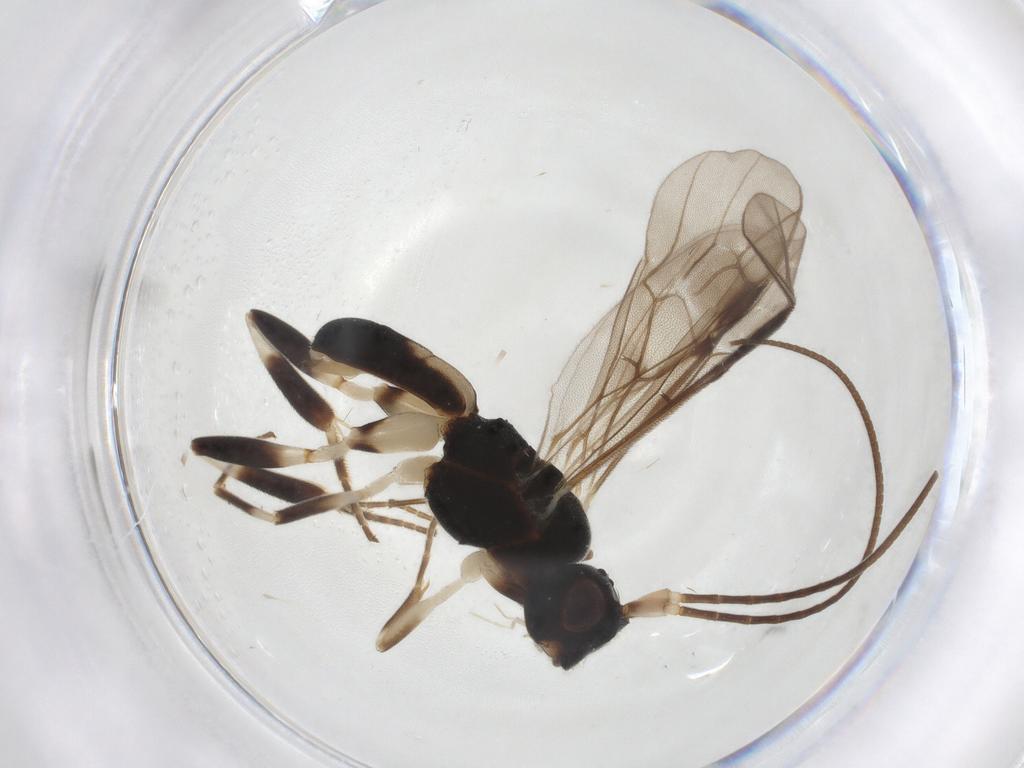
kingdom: Animalia
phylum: Arthropoda
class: Insecta
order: Hymenoptera
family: Braconidae
